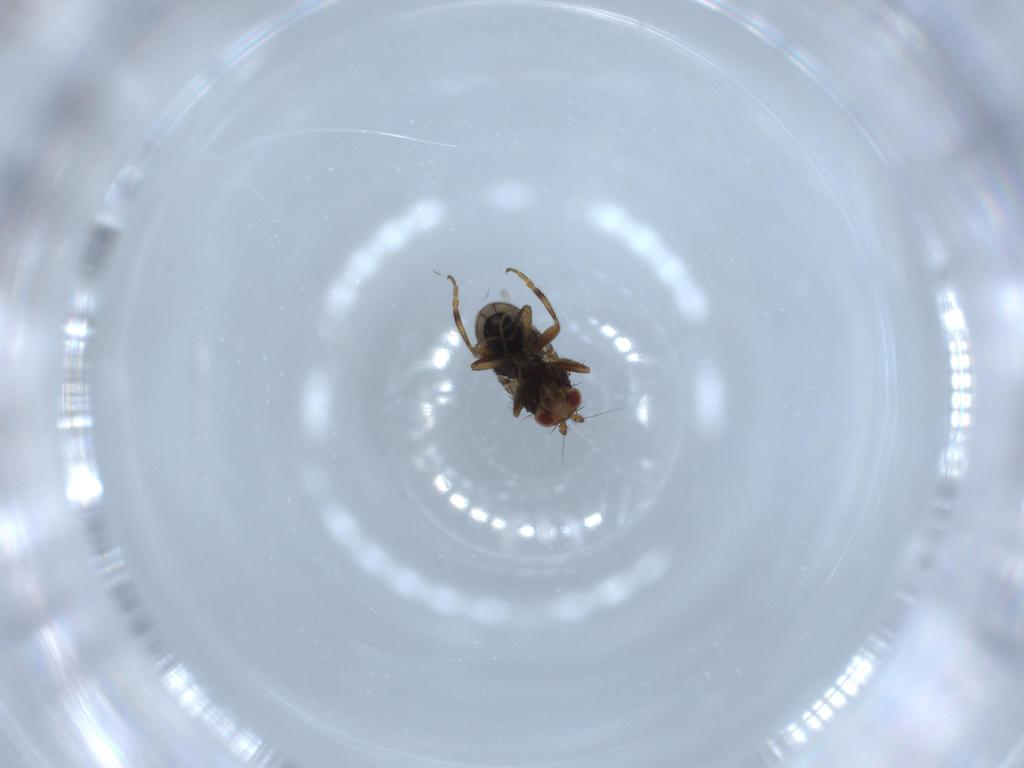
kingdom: Animalia
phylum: Arthropoda
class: Insecta
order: Diptera
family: Sphaeroceridae
